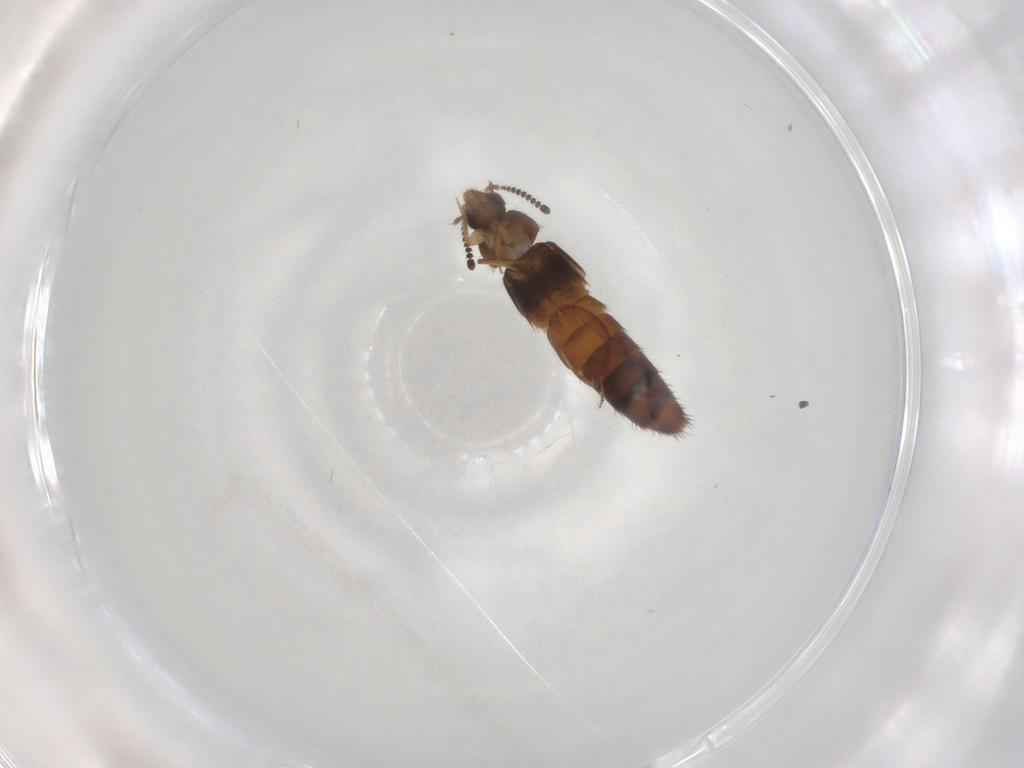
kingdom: Animalia
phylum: Arthropoda
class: Insecta
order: Coleoptera
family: Staphylinidae
